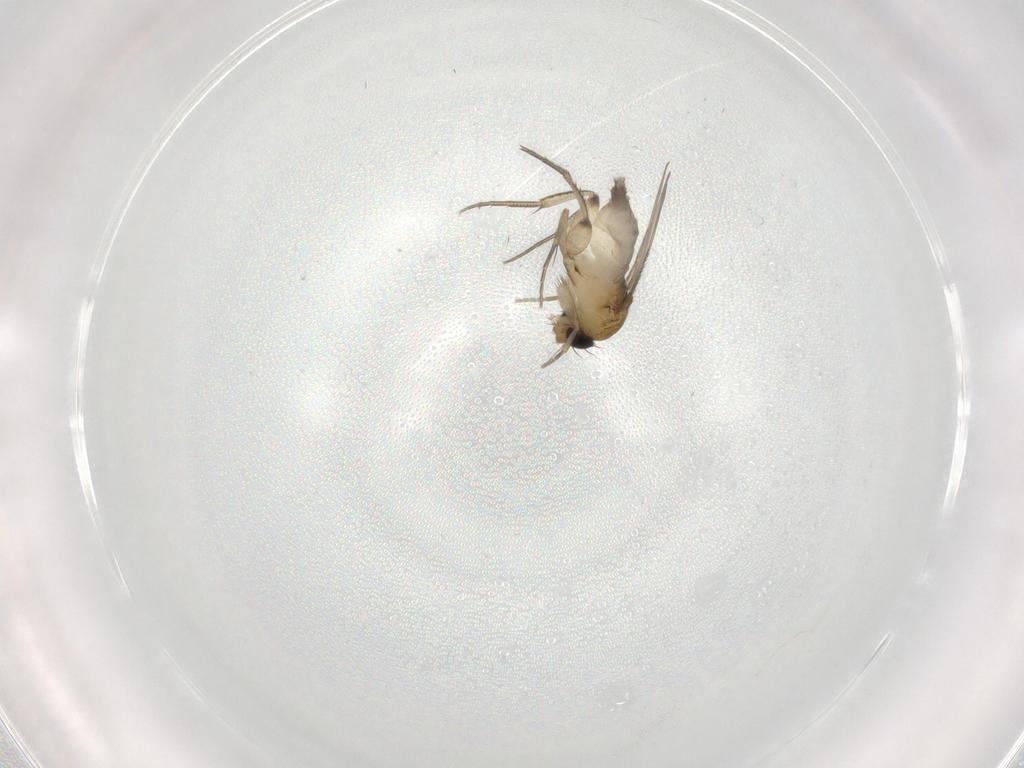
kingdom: Animalia
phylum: Arthropoda
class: Insecta
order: Diptera
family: Phoridae
